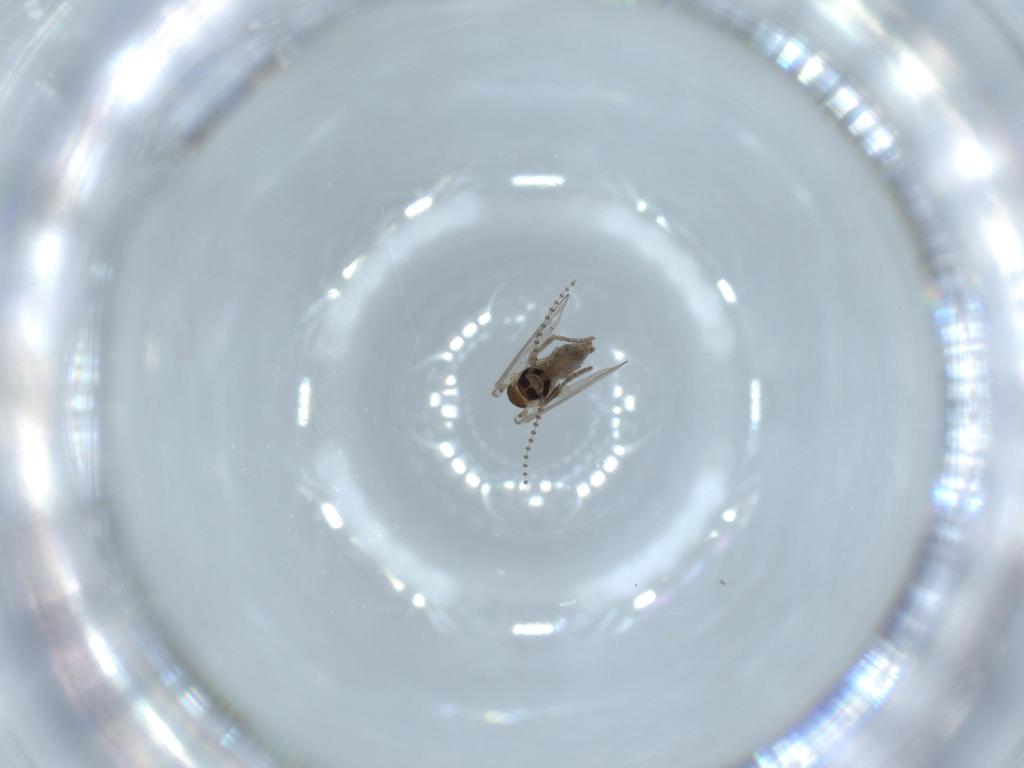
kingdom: Animalia
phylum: Arthropoda
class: Insecta
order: Diptera
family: Psychodidae
